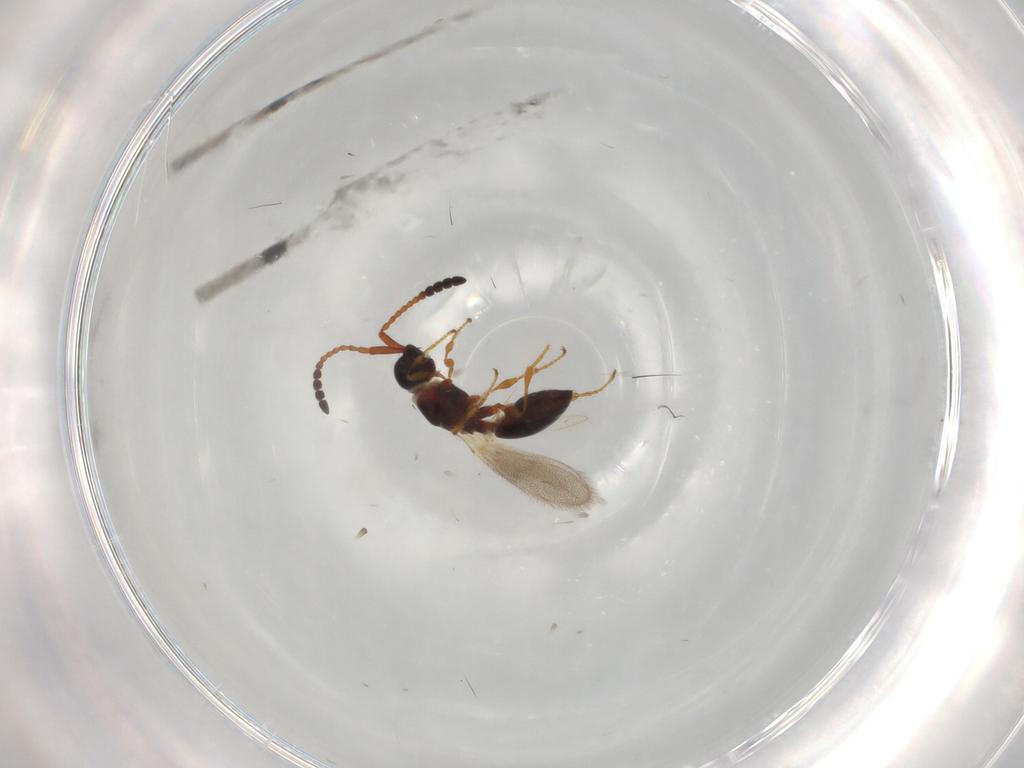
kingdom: Animalia
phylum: Arthropoda
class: Insecta
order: Hymenoptera
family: Diapriidae
